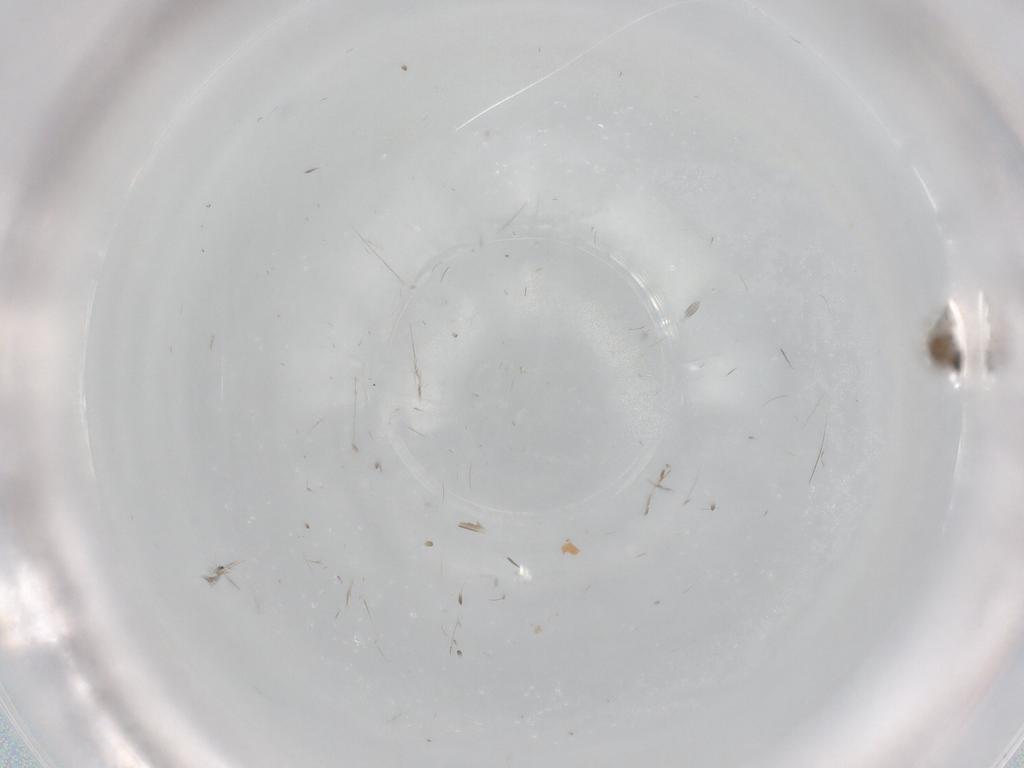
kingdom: Animalia
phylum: Arthropoda
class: Insecta
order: Diptera
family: Cecidomyiidae
